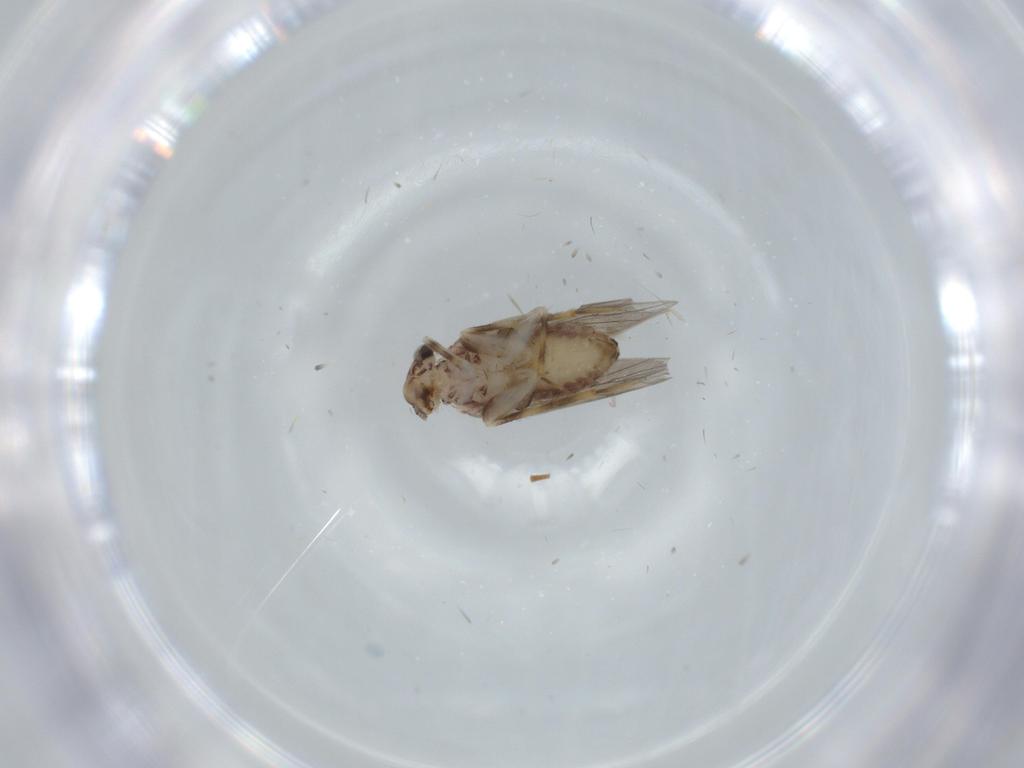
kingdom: Animalia
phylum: Arthropoda
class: Insecta
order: Psocodea
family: Lepidopsocidae
